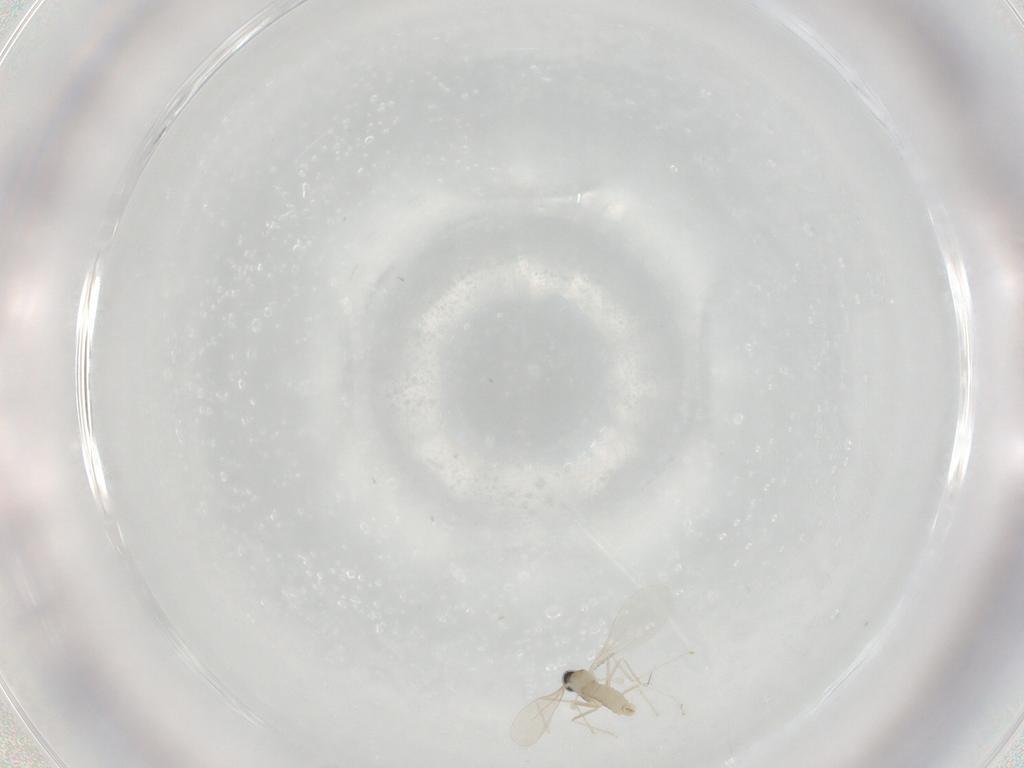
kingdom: Animalia
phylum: Arthropoda
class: Insecta
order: Diptera
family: Cecidomyiidae
